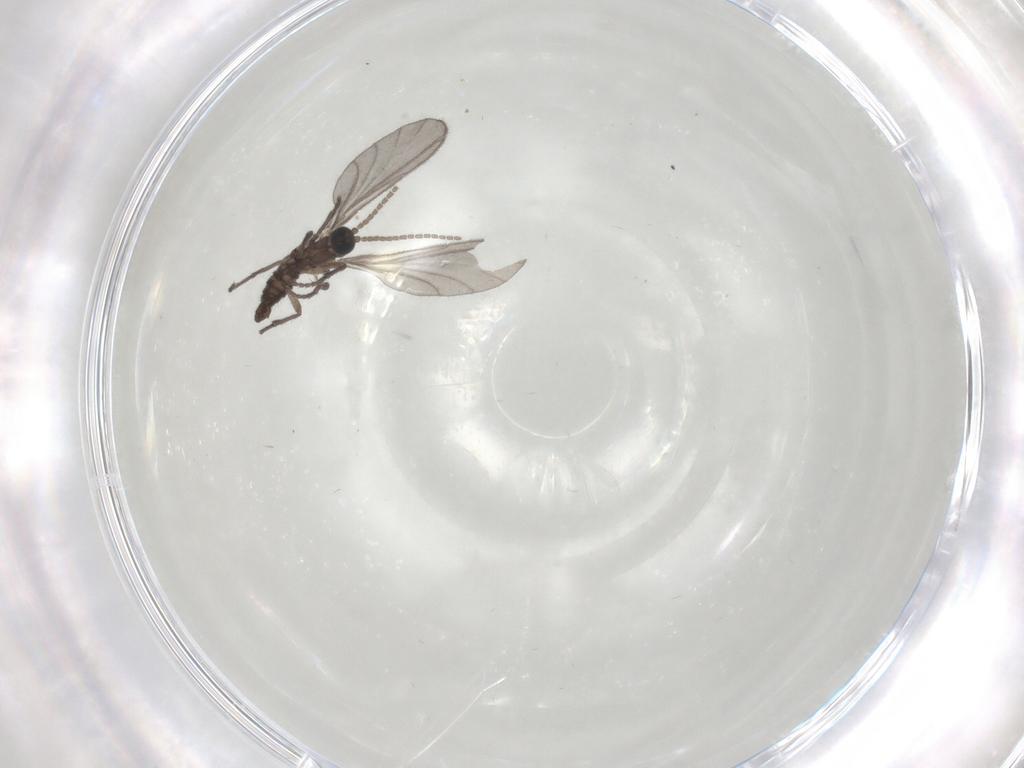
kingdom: Animalia
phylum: Arthropoda
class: Insecta
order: Diptera
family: Sciaridae
